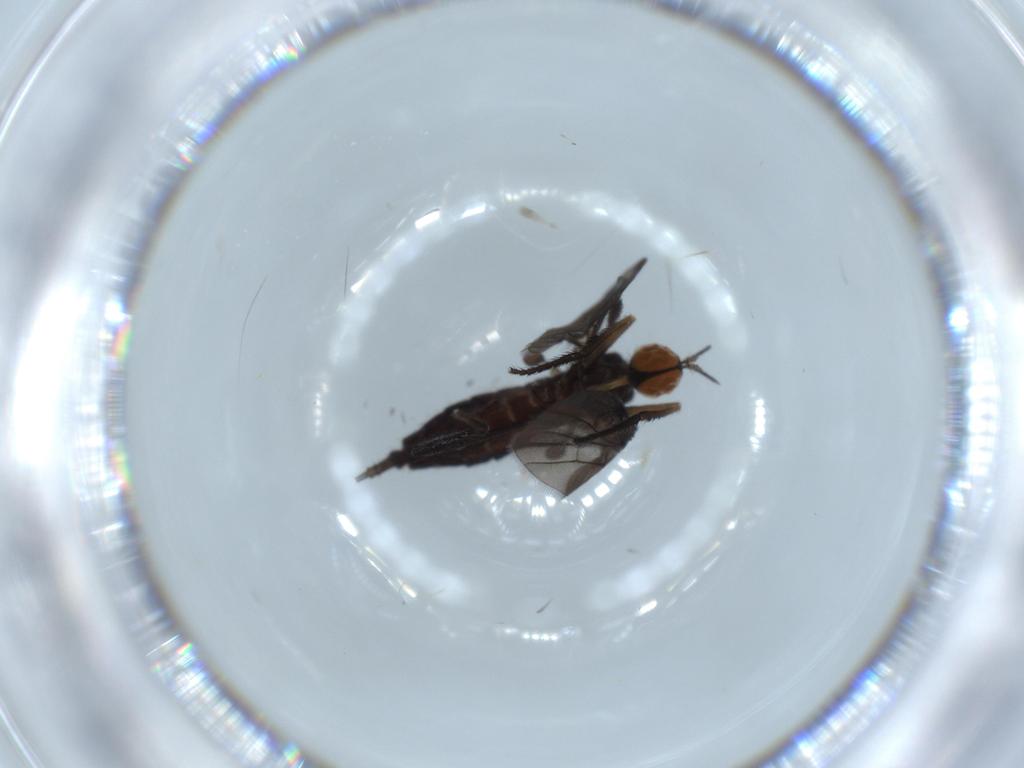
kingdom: Animalia
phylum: Arthropoda
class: Insecta
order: Diptera
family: Empididae
